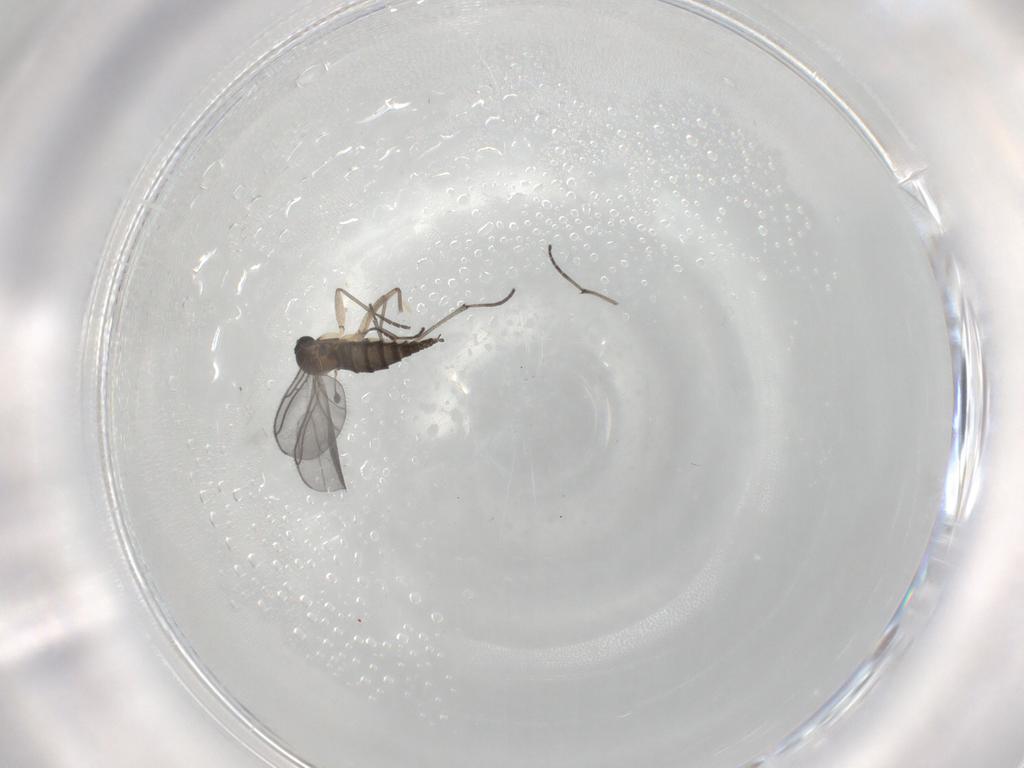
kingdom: Animalia
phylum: Arthropoda
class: Insecta
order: Diptera
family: Sciaridae
